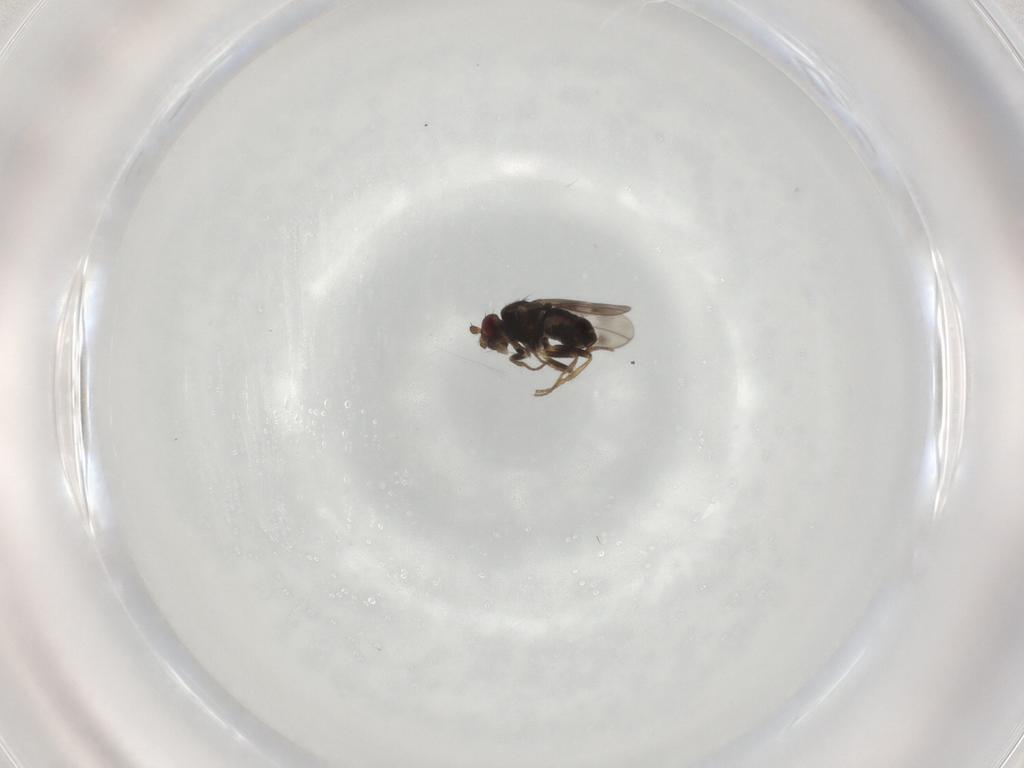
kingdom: Animalia
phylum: Arthropoda
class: Insecta
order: Diptera
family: Sphaeroceridae
